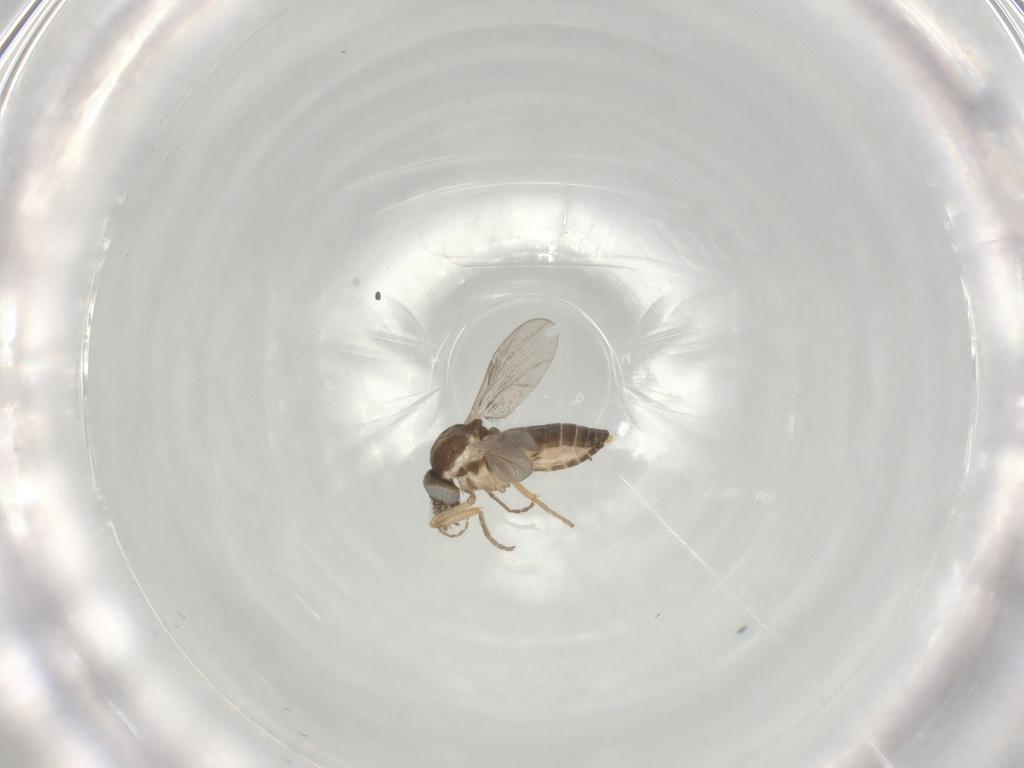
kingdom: Animalia
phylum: Arthropoda
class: Insecta
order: Diptera
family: Ceratopogonidae
